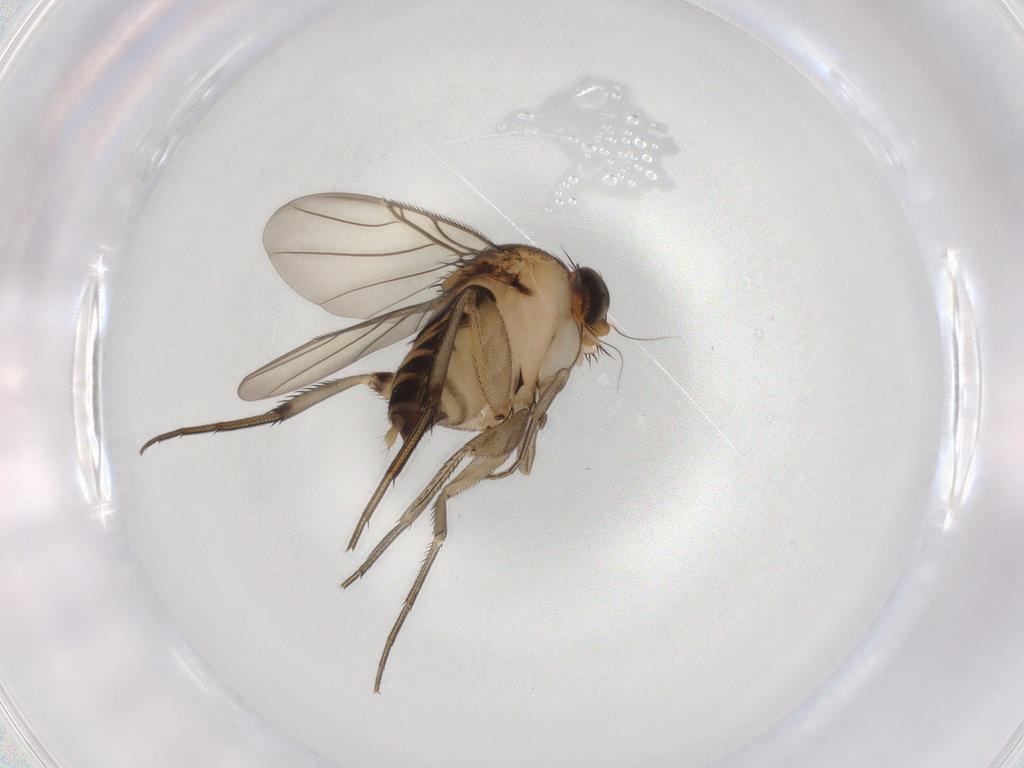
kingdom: Animalia
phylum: Arthropoda
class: Insecta
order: Diptera
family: Phoridae
